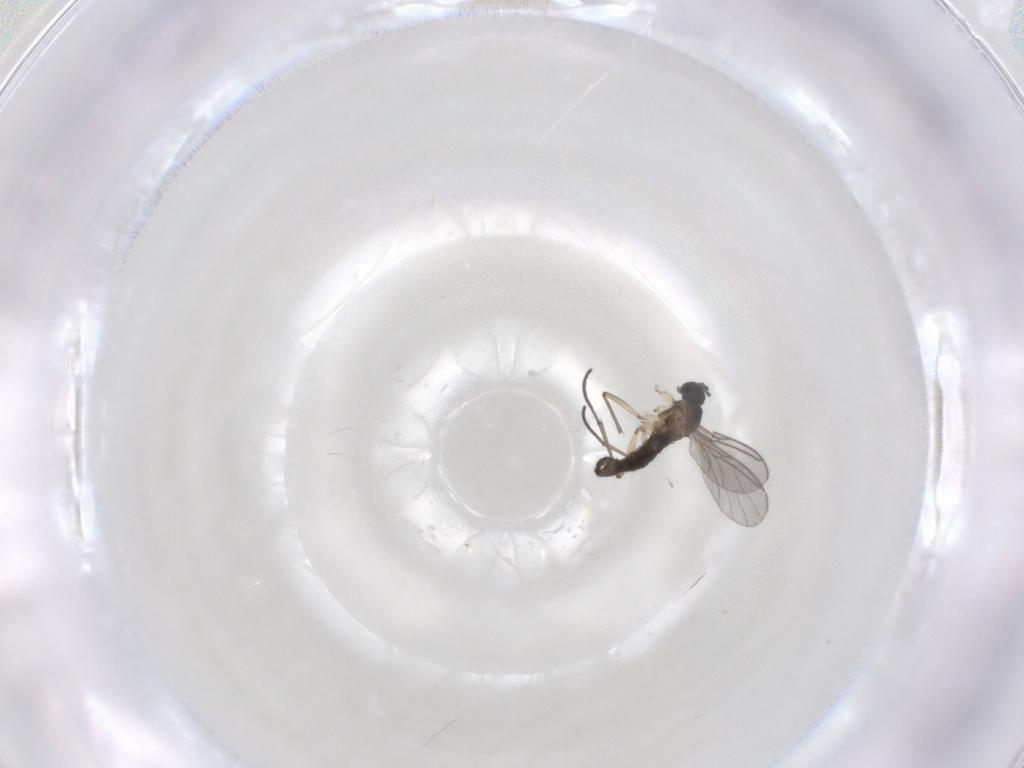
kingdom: Animalia
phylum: Arthropoda
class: Insecta
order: Diptera
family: Sciaridae
